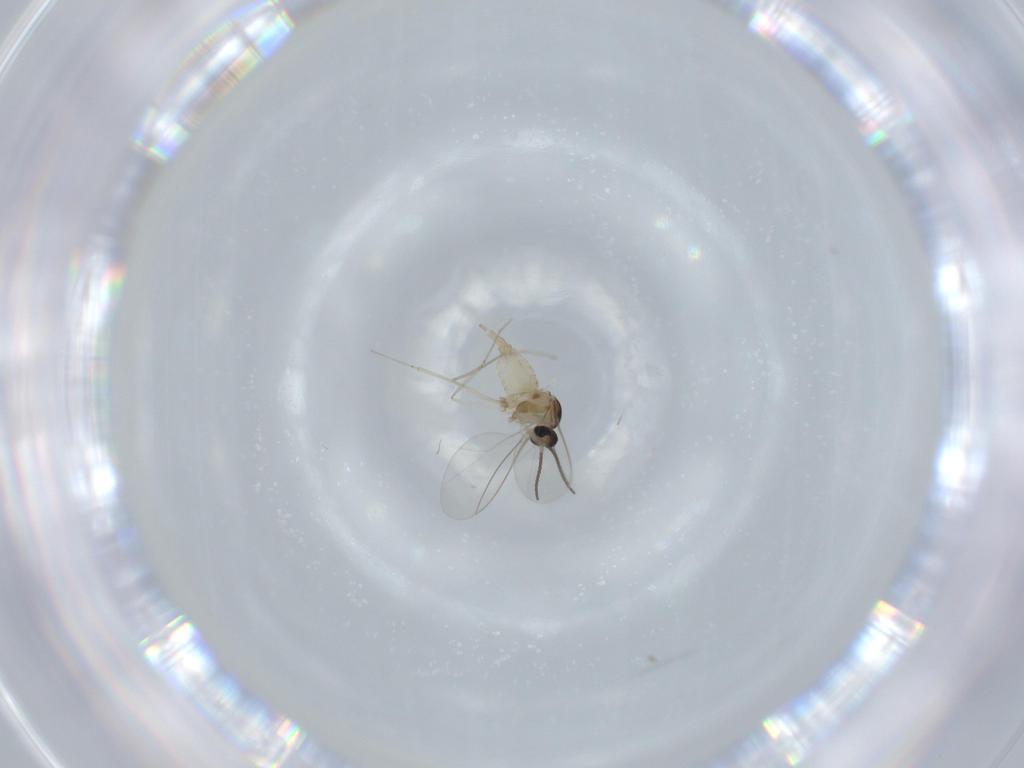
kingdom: Animalia
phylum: Arthropoda
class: Insecta
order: Diptera
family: Cecidomyiidae
